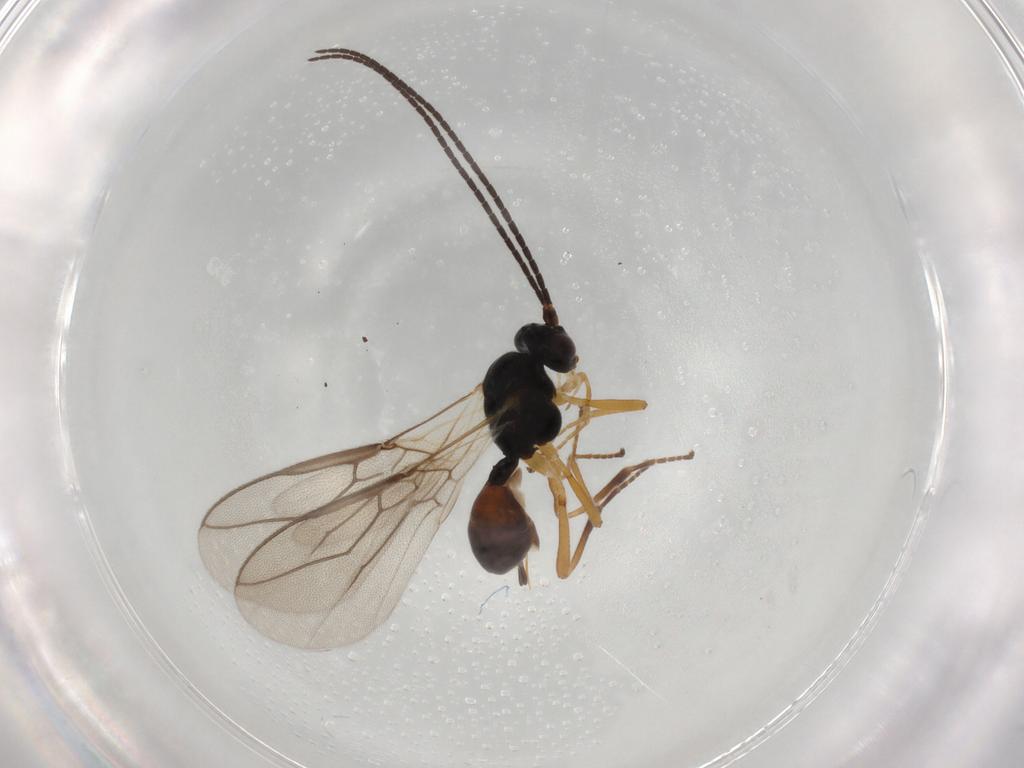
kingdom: Animalia
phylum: Arthropoda
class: Insecta
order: Hymenoptera
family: Braconidae
